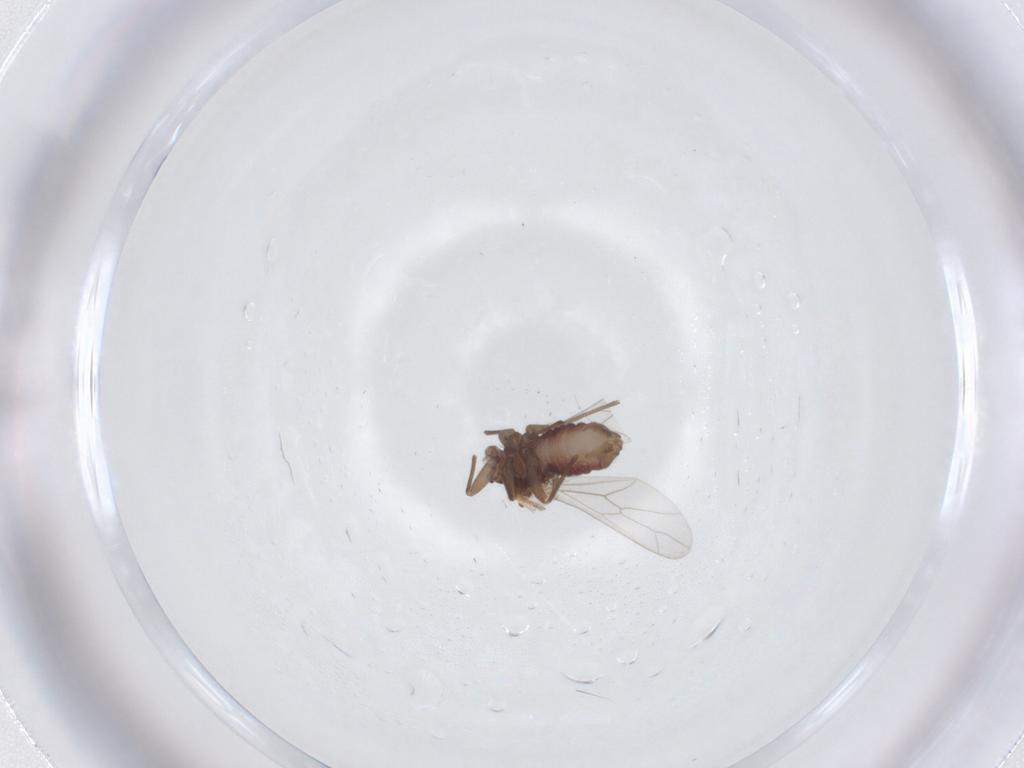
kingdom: Animalia
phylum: Arthropoda
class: Insecta
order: Psocodea
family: Ectopsocidae
